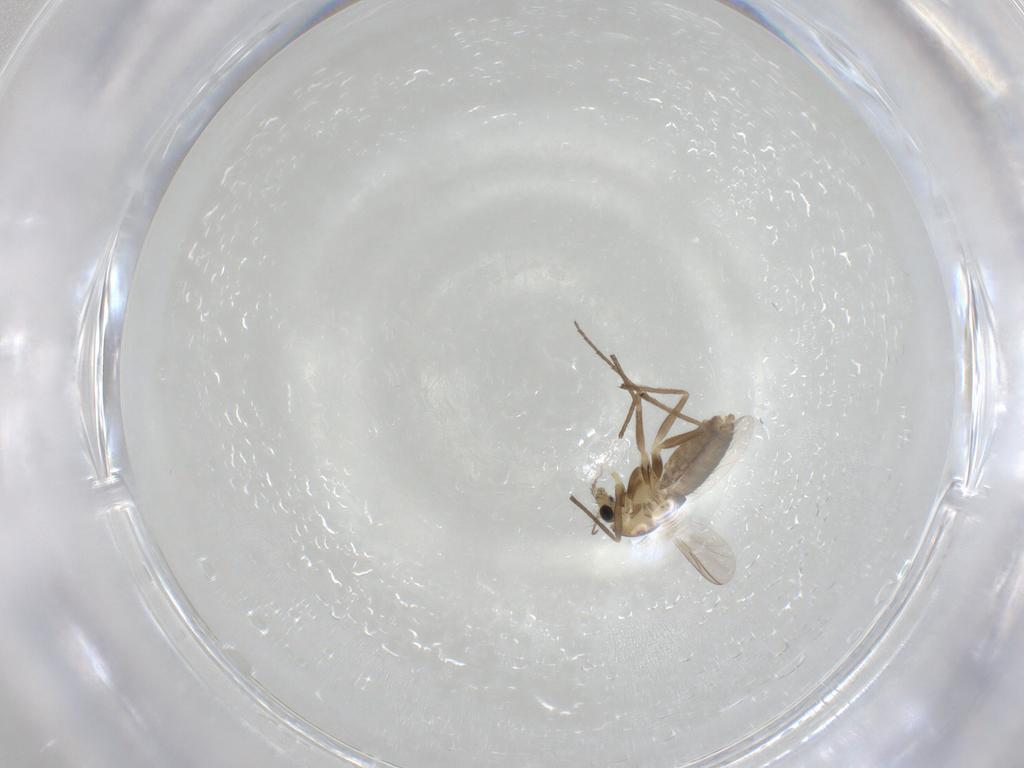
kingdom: Animalia
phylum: Arthropoda
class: Insecta
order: Diptera
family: Chironomidae
